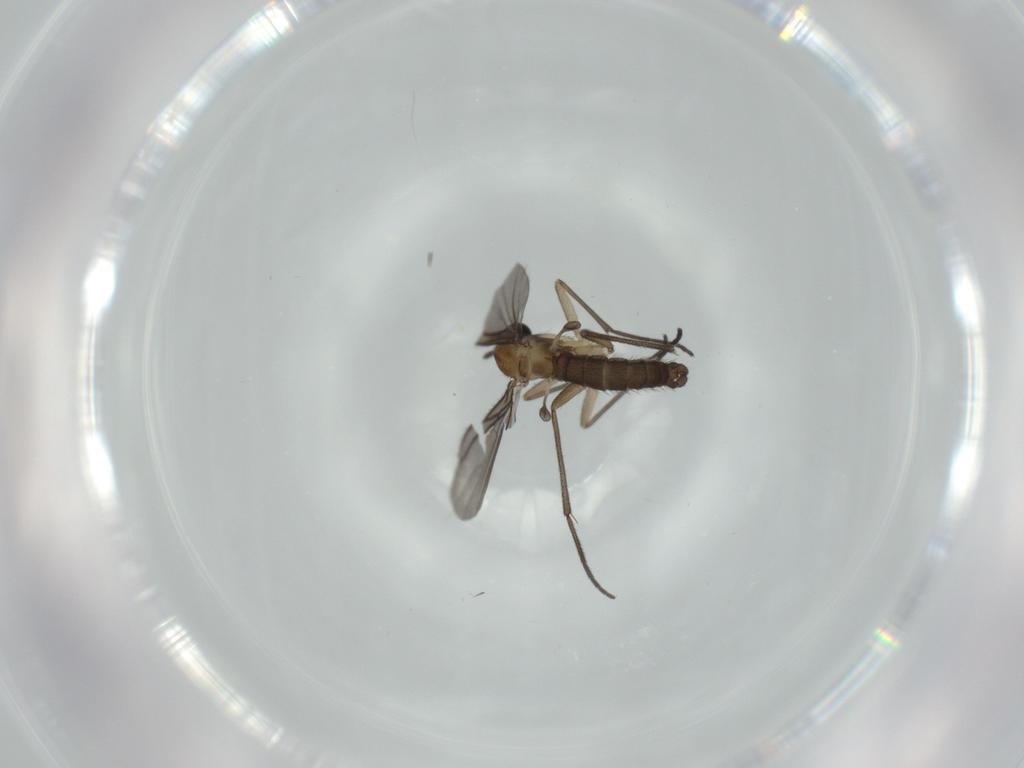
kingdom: Animalia
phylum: Arthropoda
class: Insecta
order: Diptera
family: Sciaridae
